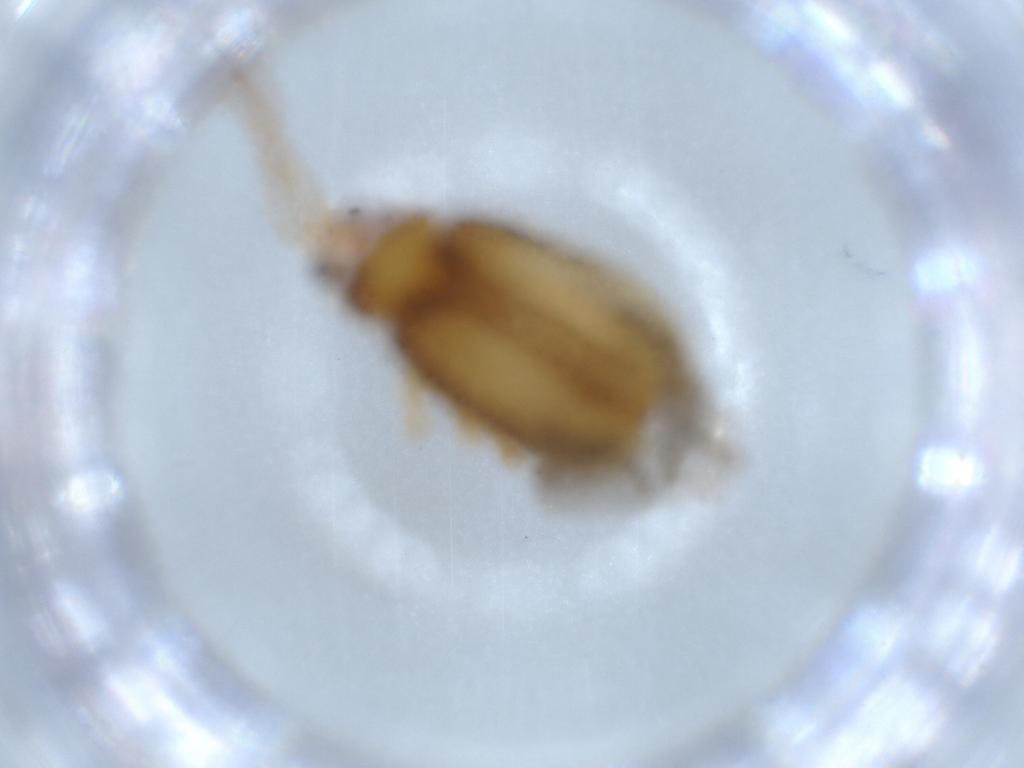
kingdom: Animalia
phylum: Arthropoda
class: Insecta
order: Coleoptera
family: Chrysomelidae
